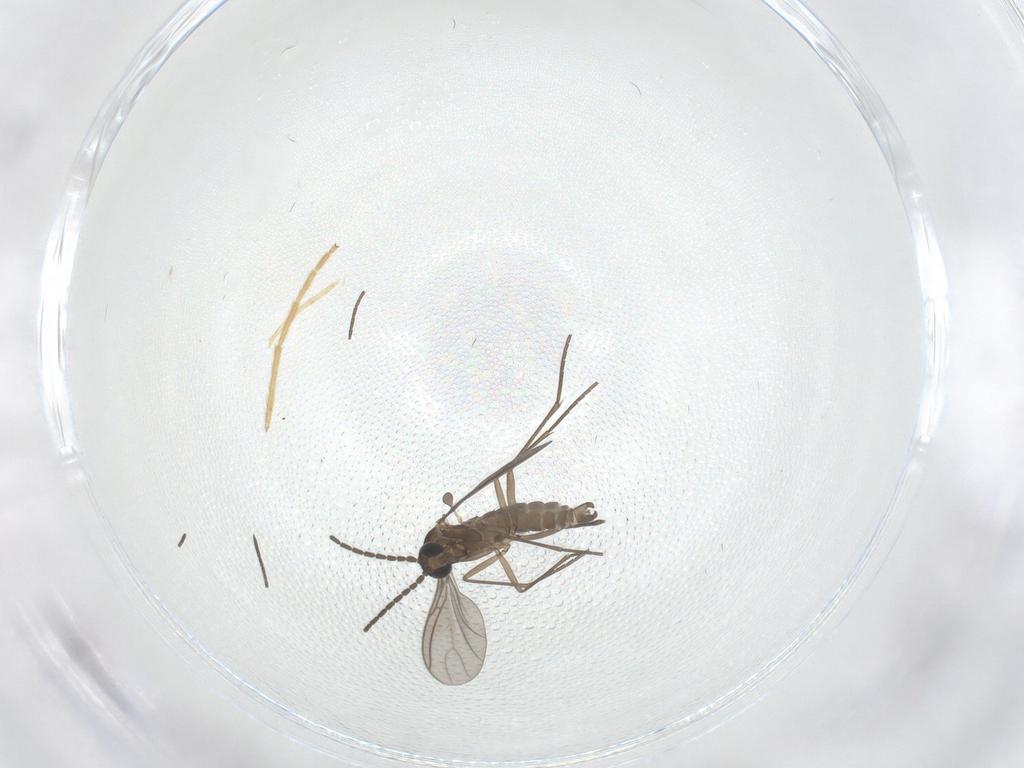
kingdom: Animalia
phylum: Arthropoda
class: Insecta
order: Diptera
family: Sciaridae
